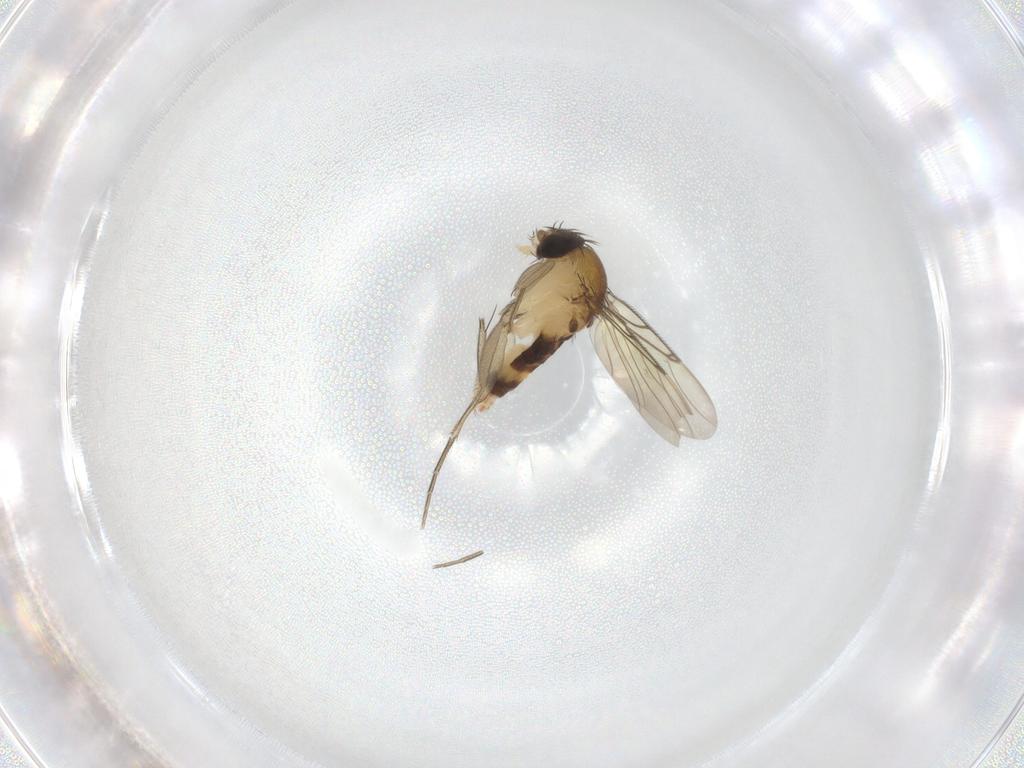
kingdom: Animalia
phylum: Arthropoda
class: Insecta
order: Diptera
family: Phoridae
